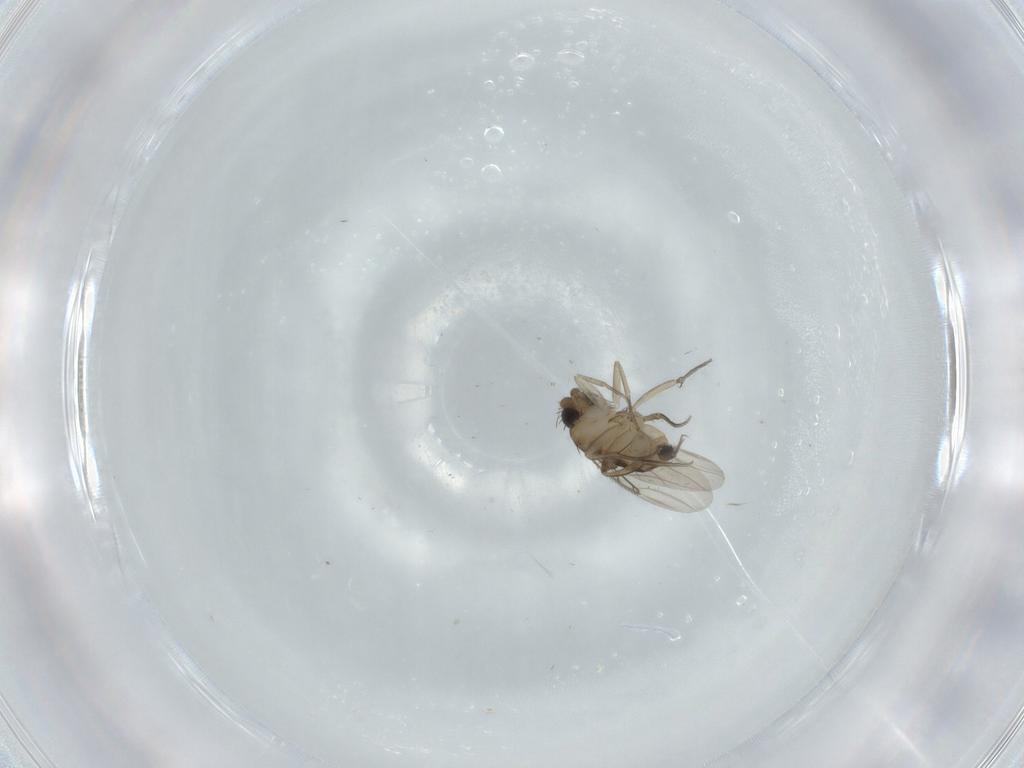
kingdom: Animalia
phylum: Arthropoda
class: Insecta
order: Diptera
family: Phoridae
